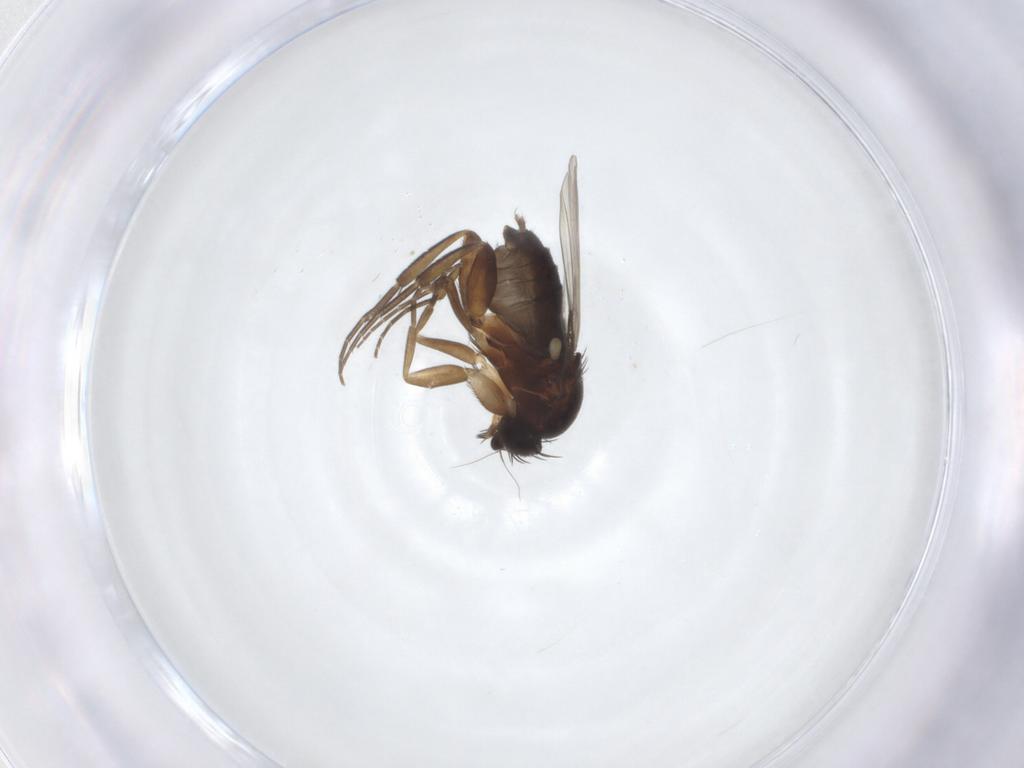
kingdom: Animalia
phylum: Arthropoda
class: Insecta
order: Diptera
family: Phoridae
